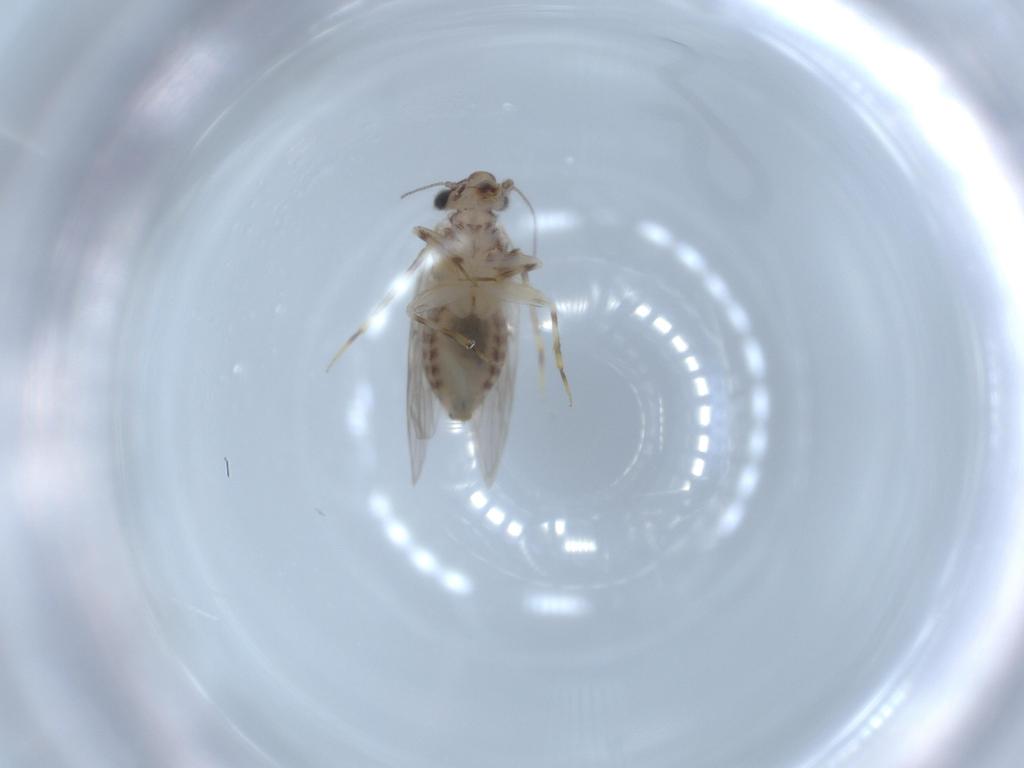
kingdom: Animalia
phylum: Arthropoda
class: Insecta
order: Psocodea
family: Lepidopsocidae
